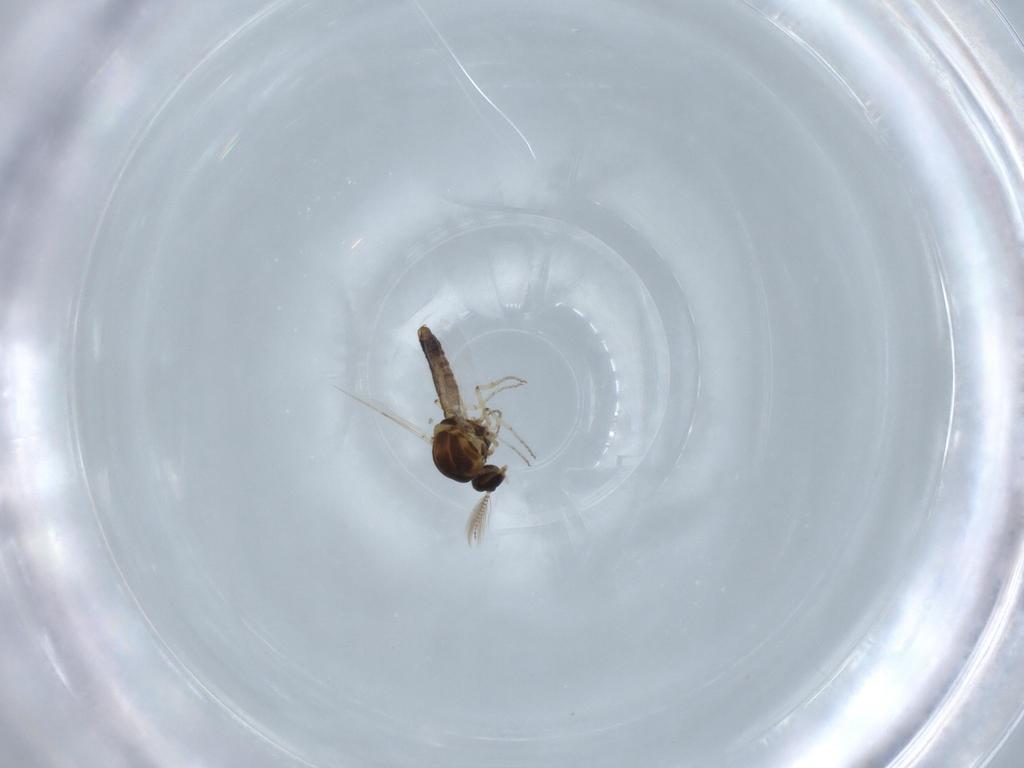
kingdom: Animalia
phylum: Arthropoda
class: Insecta
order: Diptera
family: Ceratopogonidae
